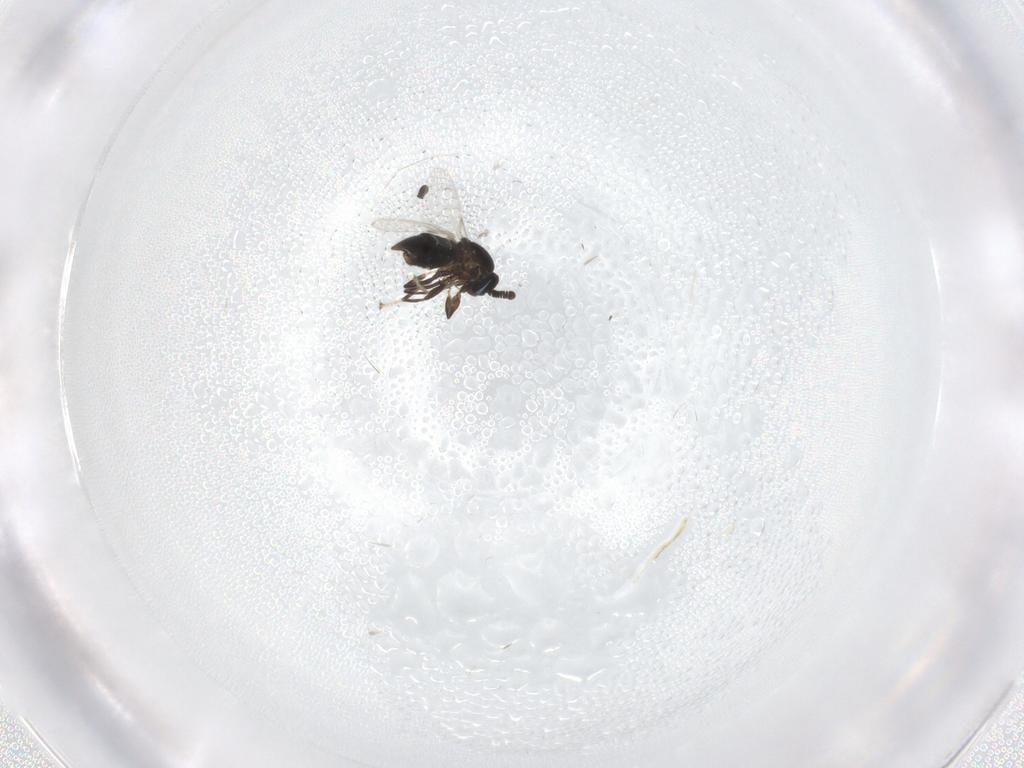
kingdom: Animalia
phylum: Arthropoda
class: Insecta
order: Diptera
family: Scatopsidae
